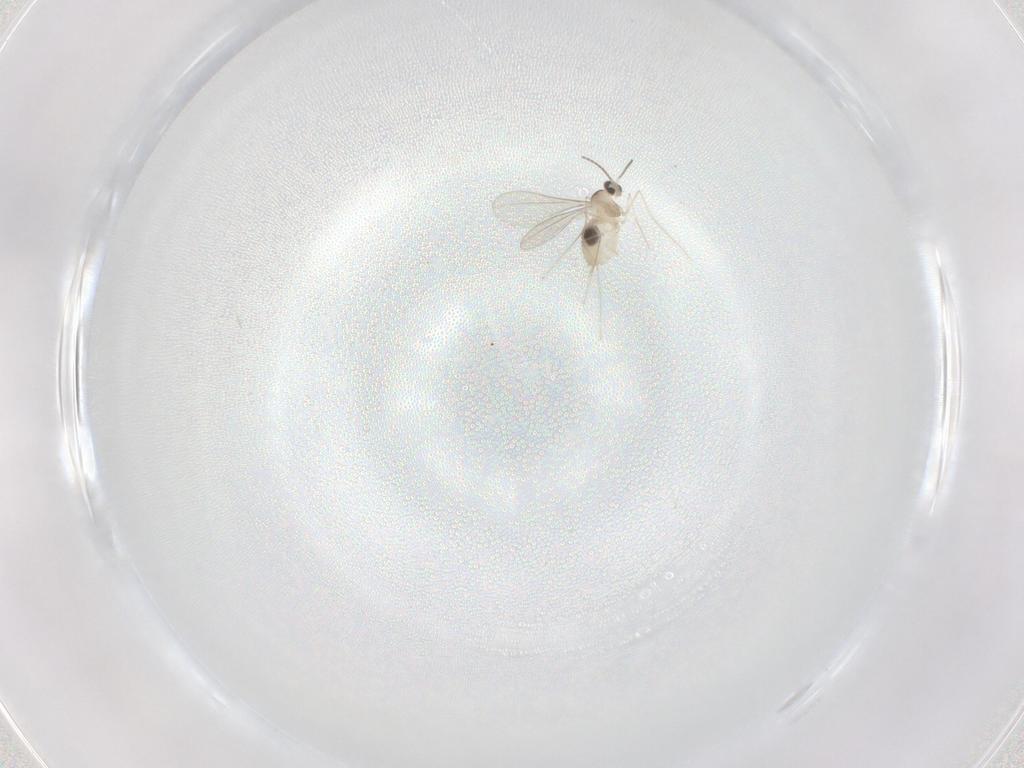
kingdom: Animalia
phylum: Arthropoda
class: Insecta
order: Diptera
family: Cecidomyiidae
